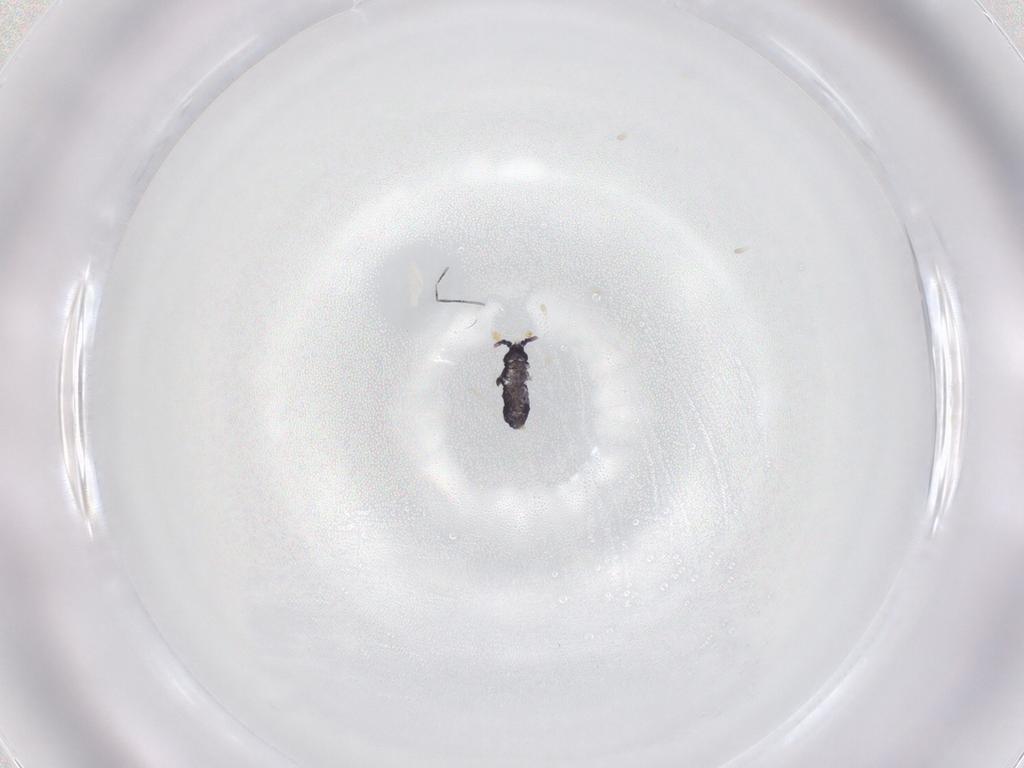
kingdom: Animalia
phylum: Arthropoda
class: Collembola
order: Poduromorpha
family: Neanuridae
